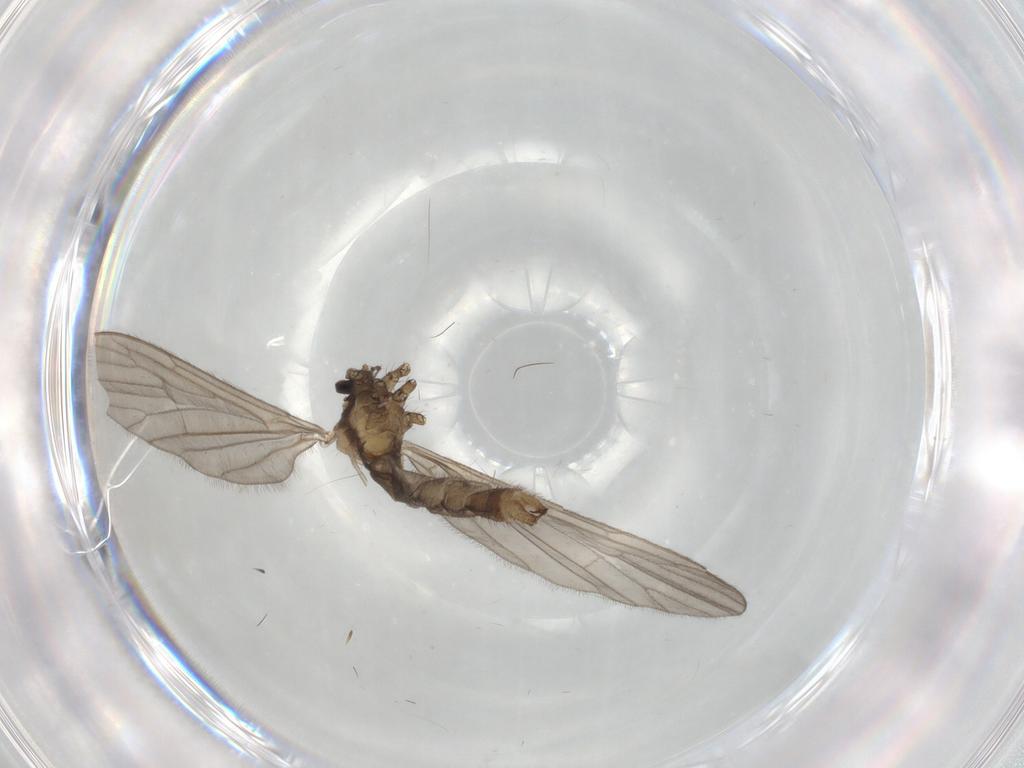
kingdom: Animalia
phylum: Arthropoda
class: Insecta
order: Diptera
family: Limoniidae
